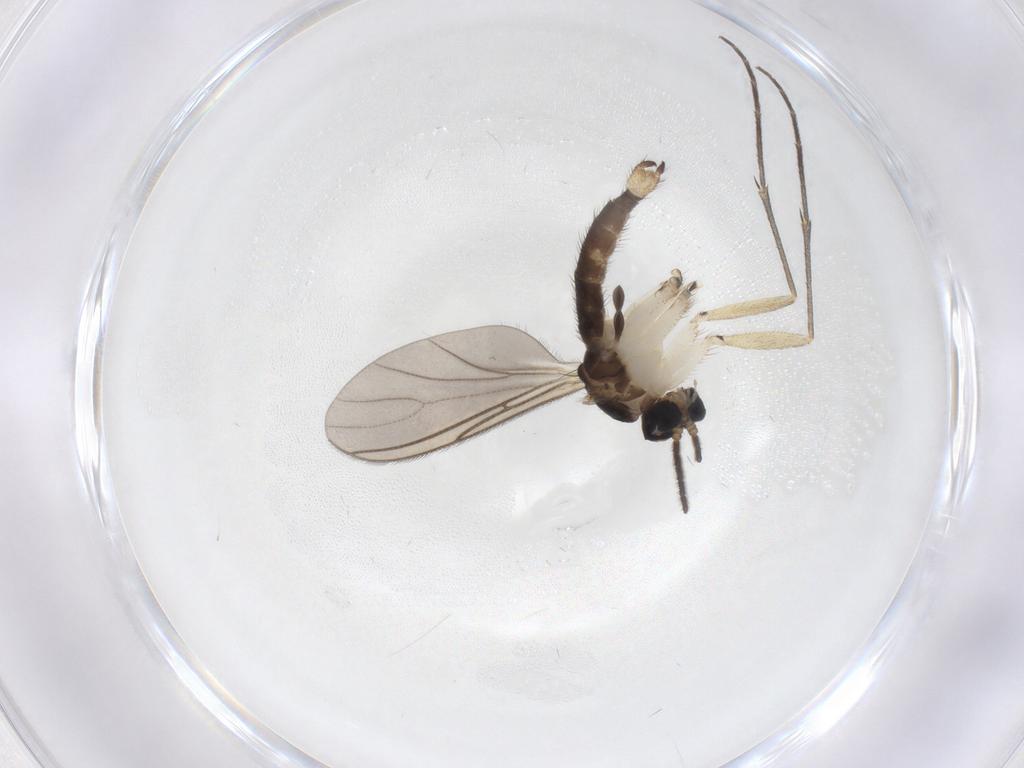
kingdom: Animalia
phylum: Arthropoda
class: Insecta
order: Diptera
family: Sciaridae
